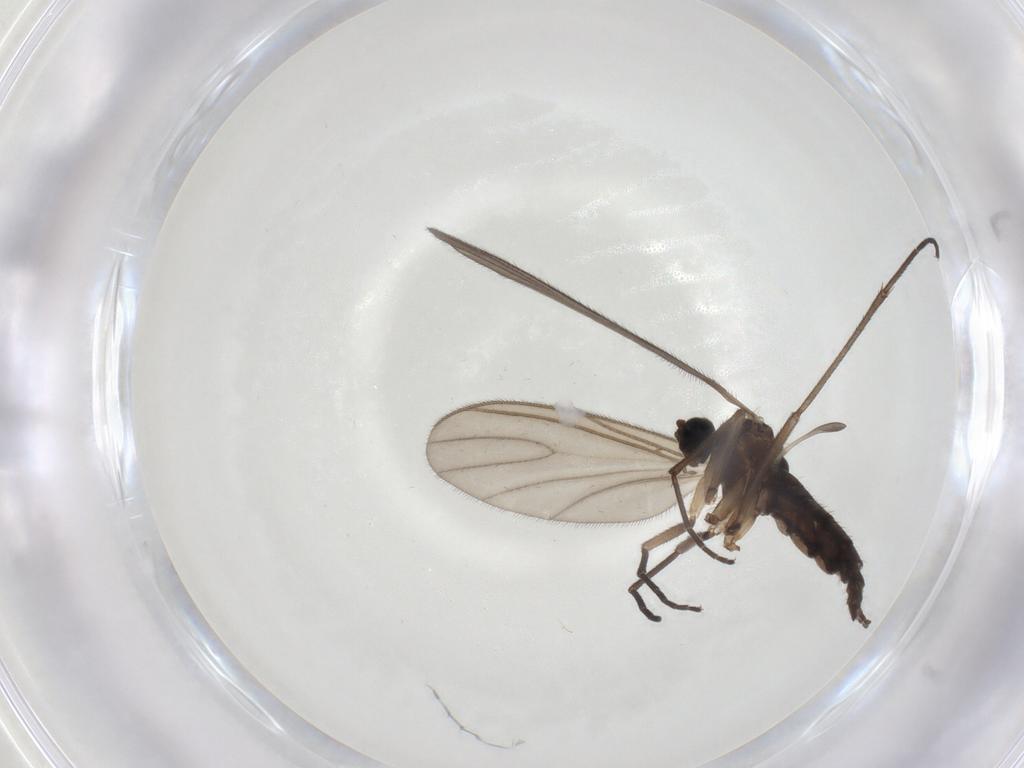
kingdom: Animalia
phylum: Arthropoda
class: Insecta
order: Diptera
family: Sciaridae
